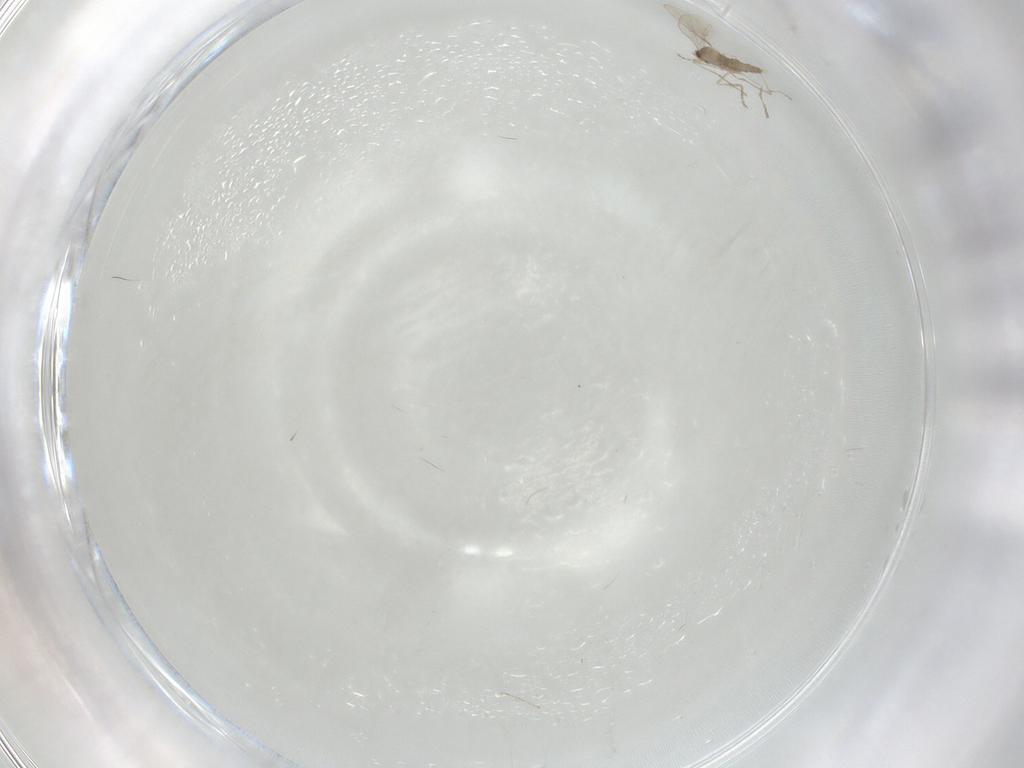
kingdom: Animalia
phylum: Arthropoda
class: Insecta
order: Diptera
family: Cecidomyiidae
